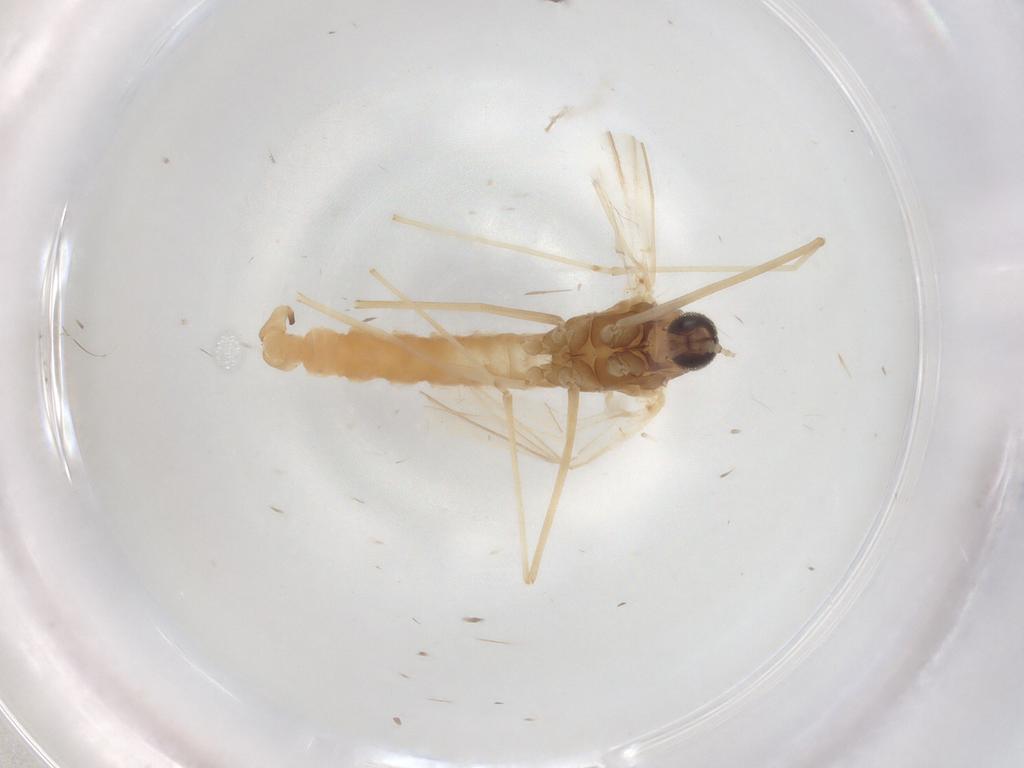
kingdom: Animalia
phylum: Arthropoda
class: Insecta
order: Diptera
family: Cecidomyiidae
